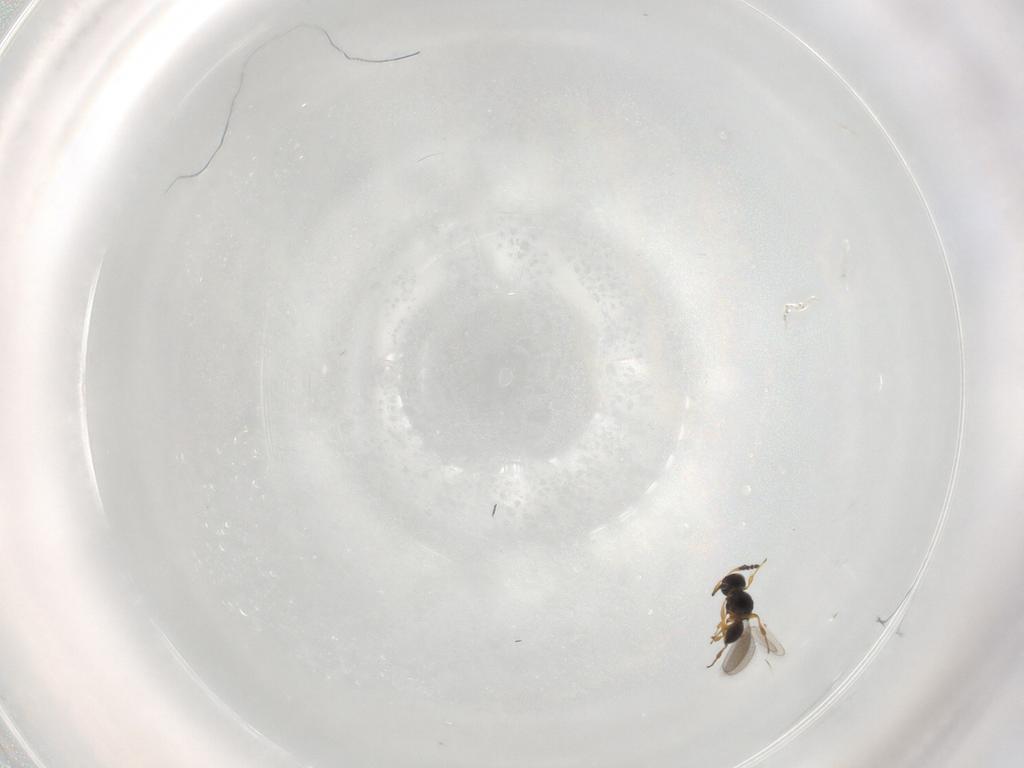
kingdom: Animalia
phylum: Arthropoda
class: Insecta
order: Hymenoptera
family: Platygastridae
